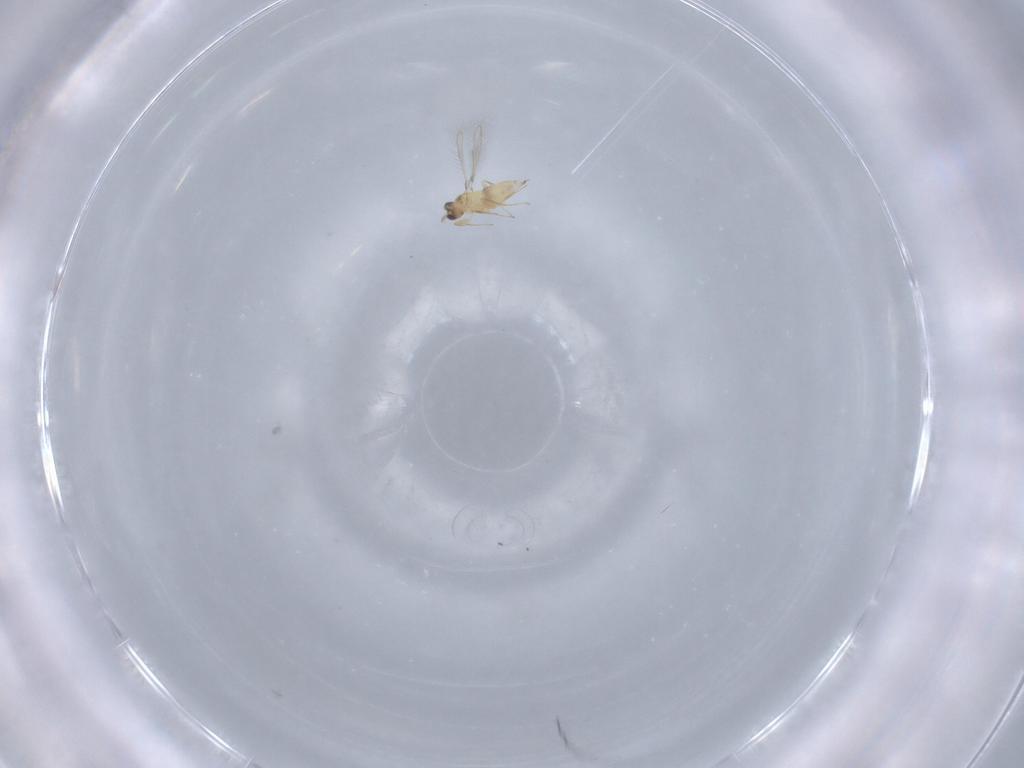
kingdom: Animalia
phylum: Arthropoda
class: Insecta
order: Hymenoptera
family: Mymaridae
